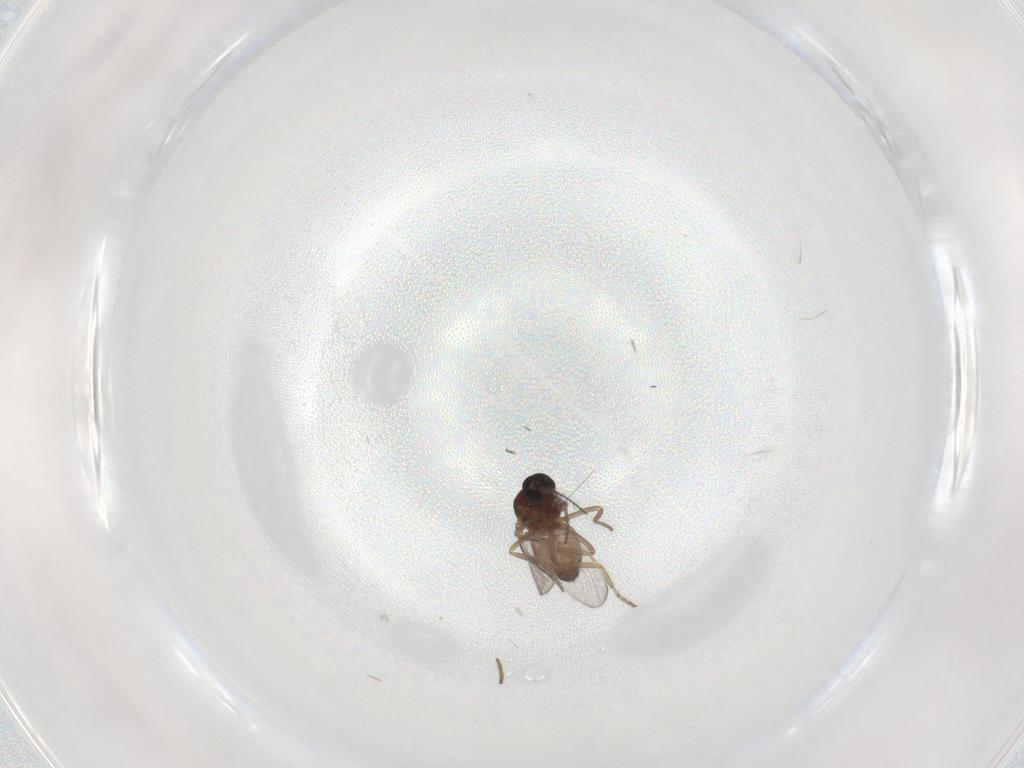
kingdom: Animalia
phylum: Arthropoda
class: Insecta
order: Diptera
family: Ceratopogonidae
